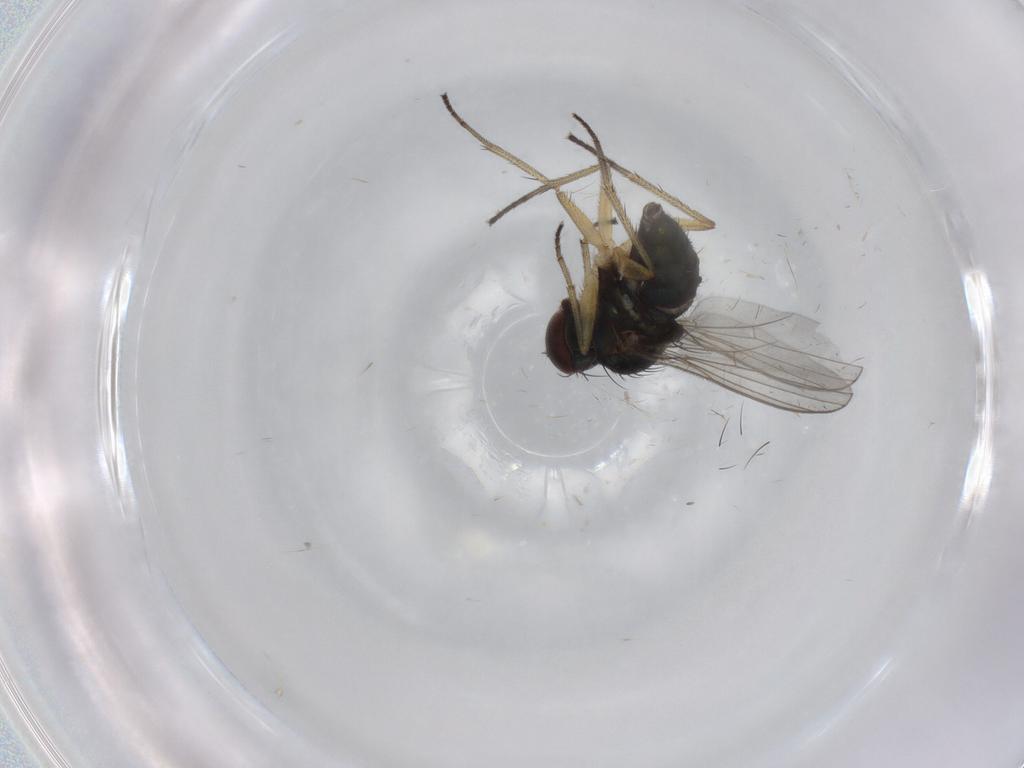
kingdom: Animalia
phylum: Arthropoda
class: Insecta
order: Diptera
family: Dolichopodidae
